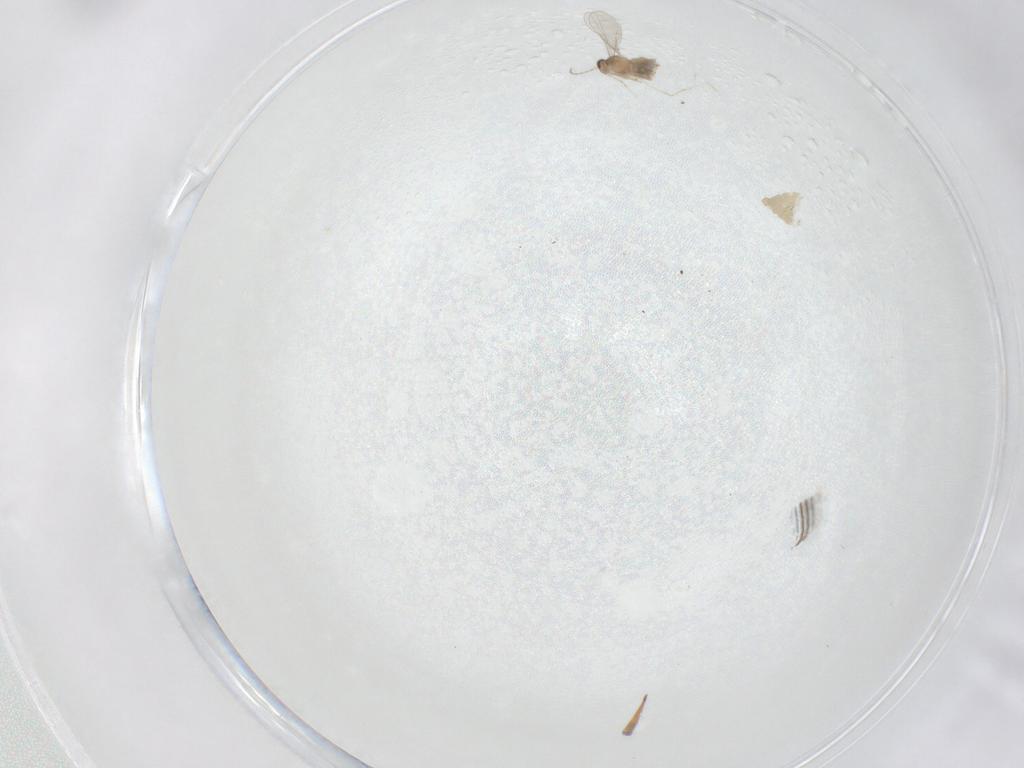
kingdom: Animalia
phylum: Arthropoda
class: Insecta
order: Diptera
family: Cecidomyiidae
